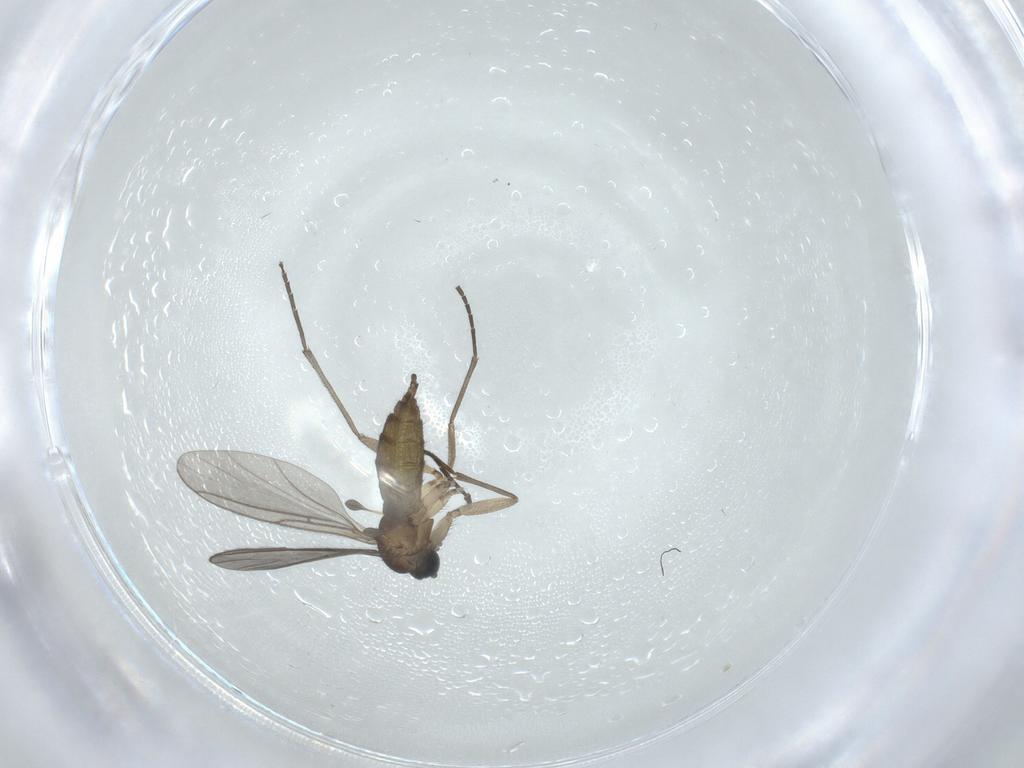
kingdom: Animalia
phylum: Arthropoda
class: Insecta
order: Diptera
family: Sciaridae
